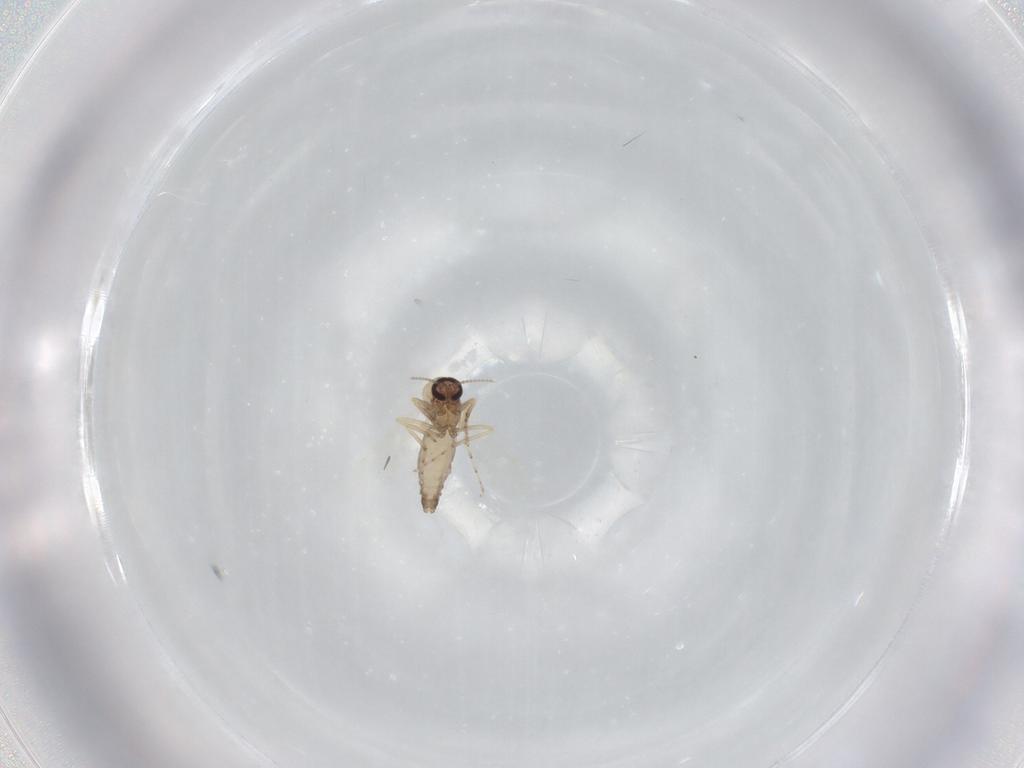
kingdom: Animalia
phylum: Arthropoda
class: Insecta
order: Diptera
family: Ceratopogonidae
